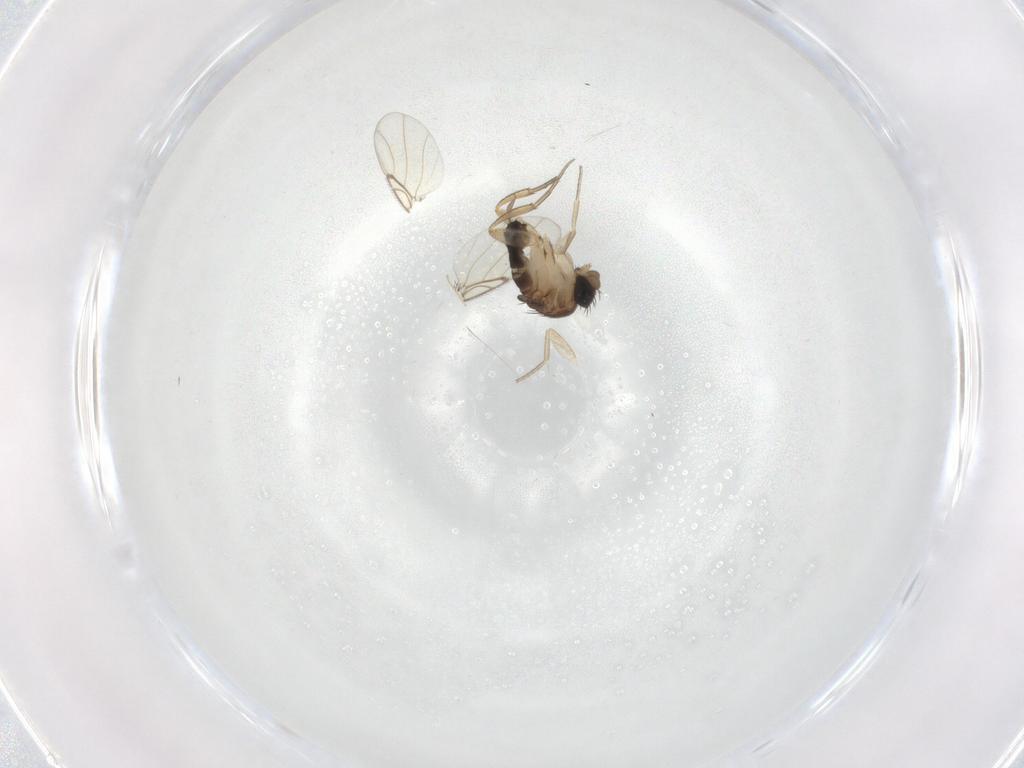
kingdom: Animalia
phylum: Arthropoda
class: Insecta
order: Diptera
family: Chironomidae
